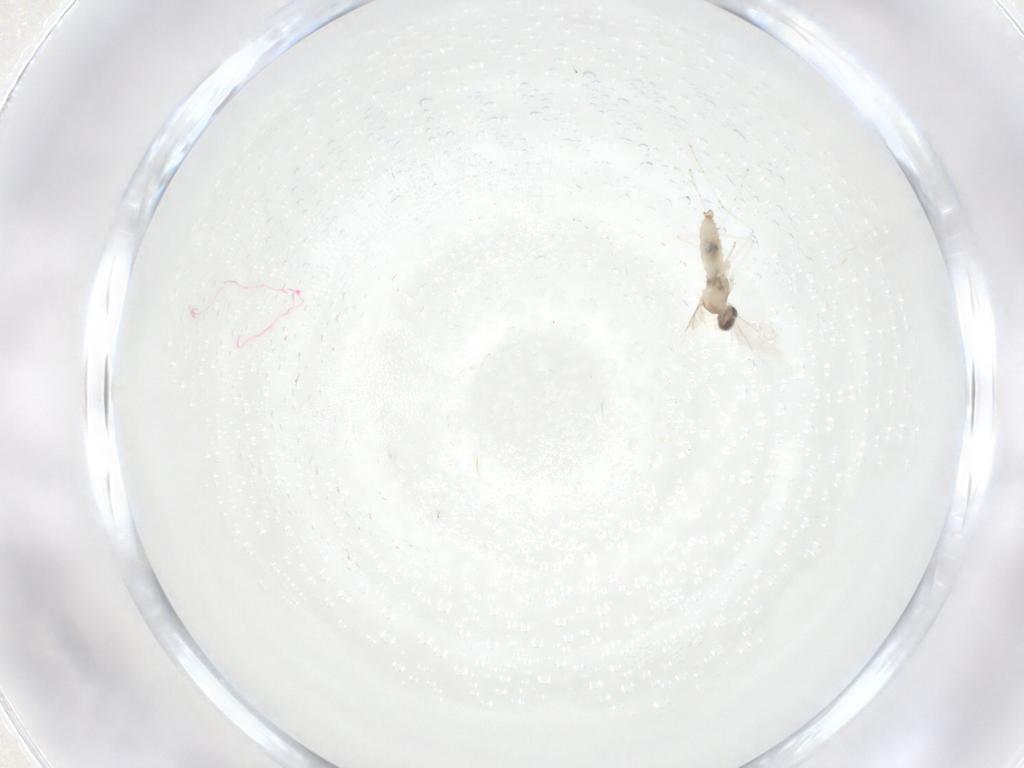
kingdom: Animalia
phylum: Arthropoda
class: Insecta
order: Diptera
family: Cecidomyiidae
